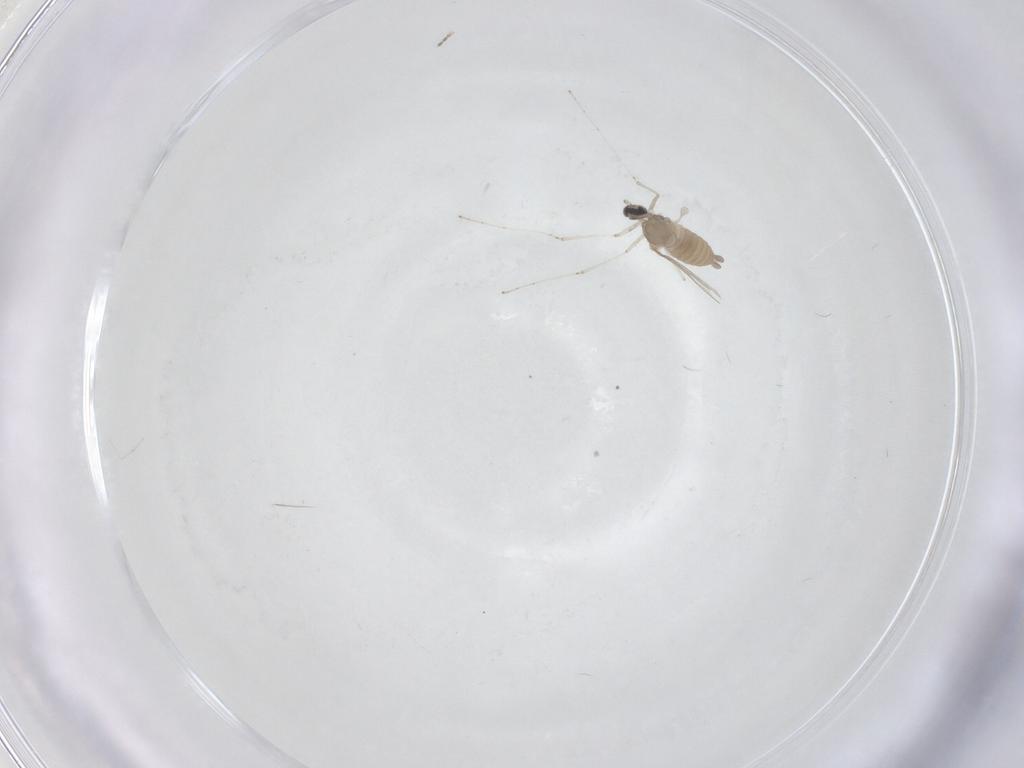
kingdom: Animalia
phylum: Arthropoda
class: Insecta
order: Diptera
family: Cecidomyiidae
